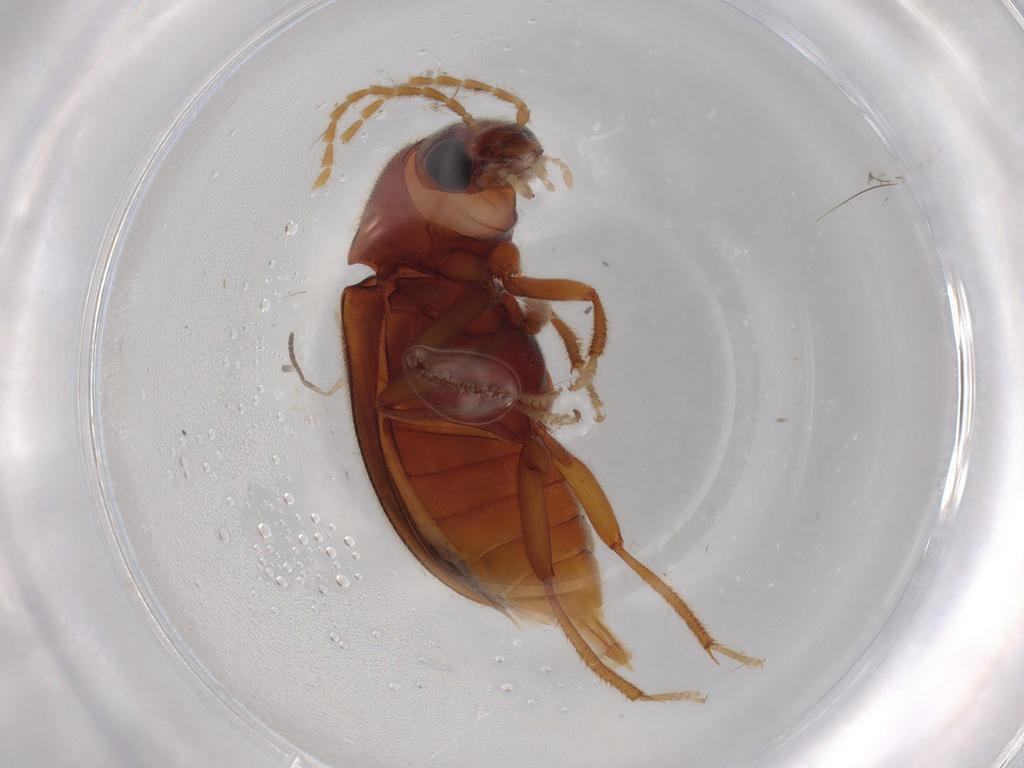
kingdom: Animalia
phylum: Arthropoda
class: Insecta
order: Coleoptera
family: Ptilodactylidae
